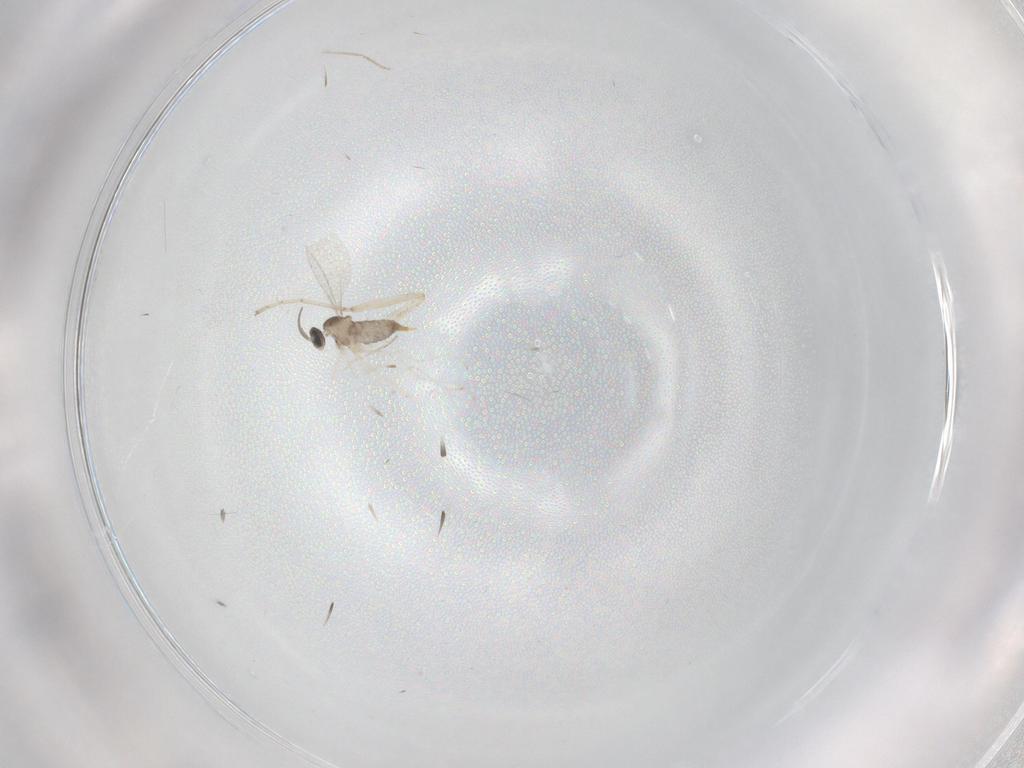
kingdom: Animalia
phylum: Arthropoda
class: Insecta
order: Diptera
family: Cecidomyiidae
